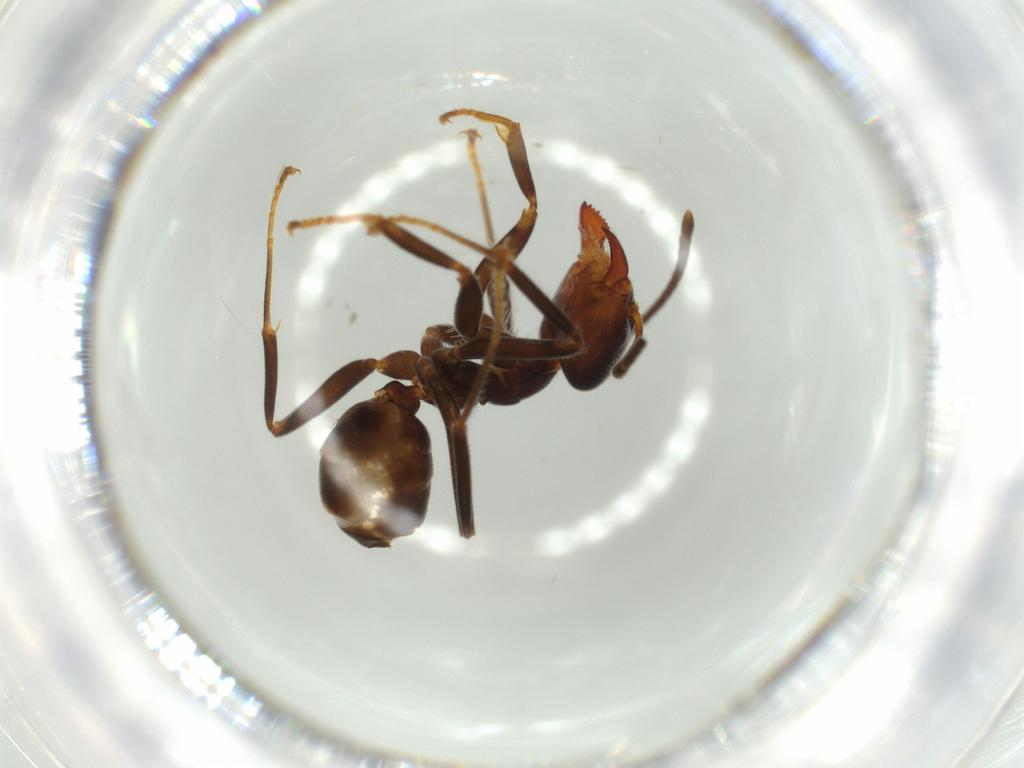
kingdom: Animalia
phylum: Arthropoda
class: Insecta
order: Hymenoptera
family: Formicidae
